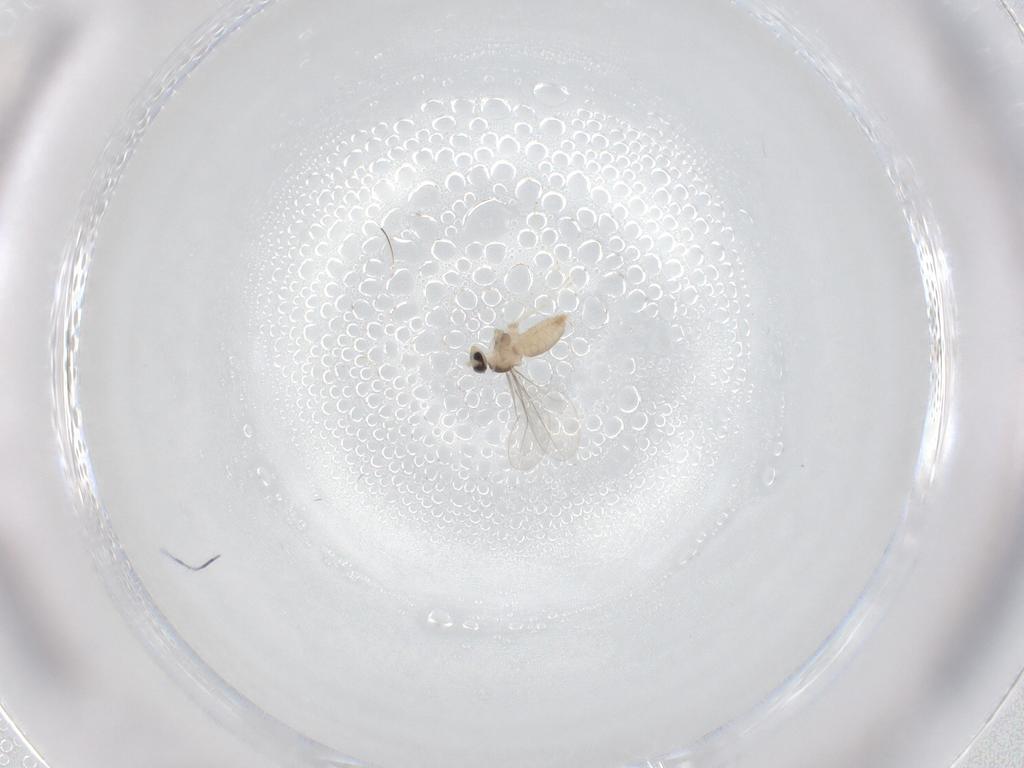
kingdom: Animalia
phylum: Arthropoda
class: Insecta
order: Diptera
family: Cecidomyiidae
